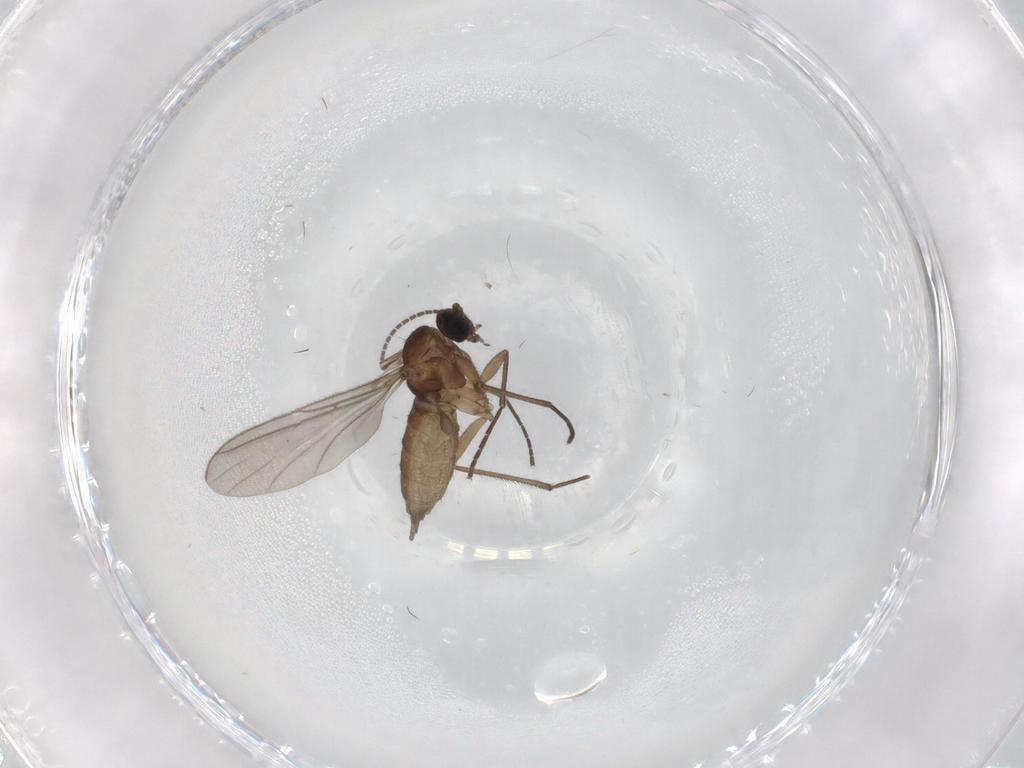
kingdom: Animalia
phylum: Arthropoda
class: Insecta
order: Diptera
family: Sciaridae
